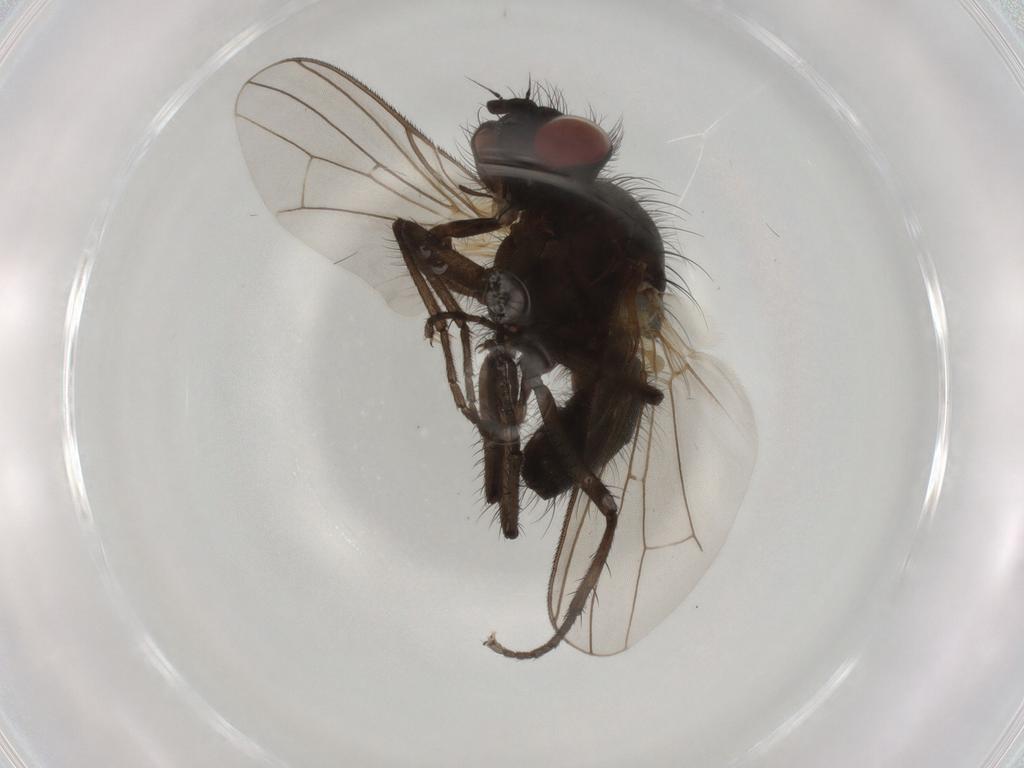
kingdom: Animalia
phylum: Arthropoda
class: Insecta
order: Diptera
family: Anthomyiidae
